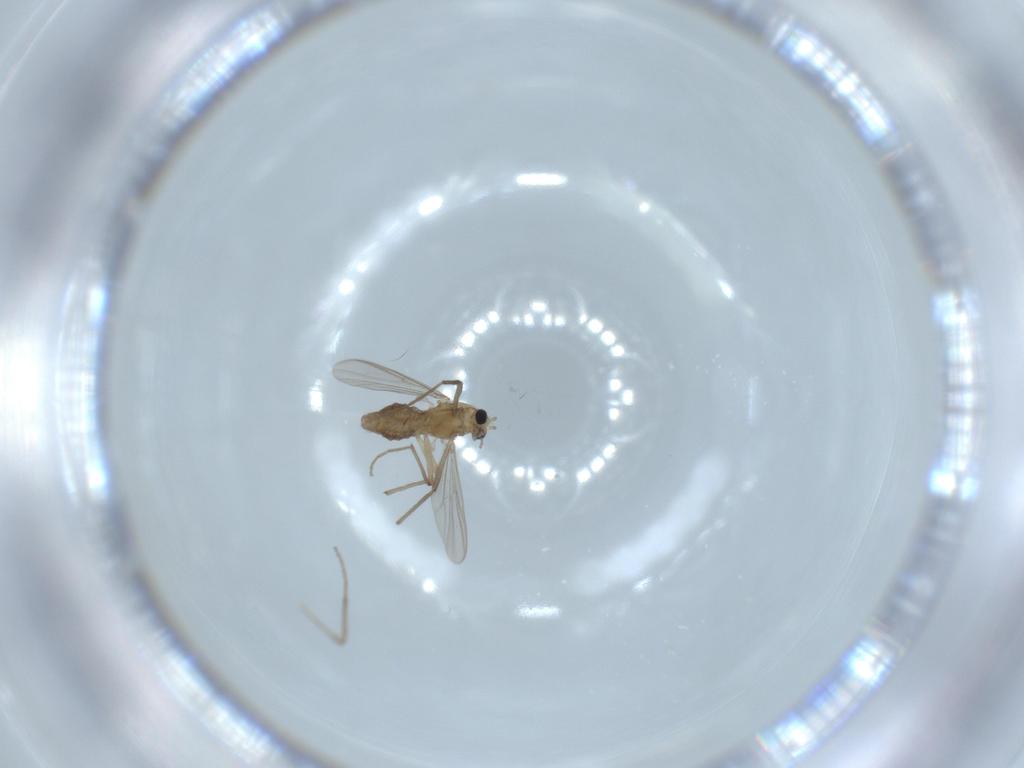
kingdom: Animalia
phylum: Arthropoda
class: Insecta
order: Diptera
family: Chironomidae
